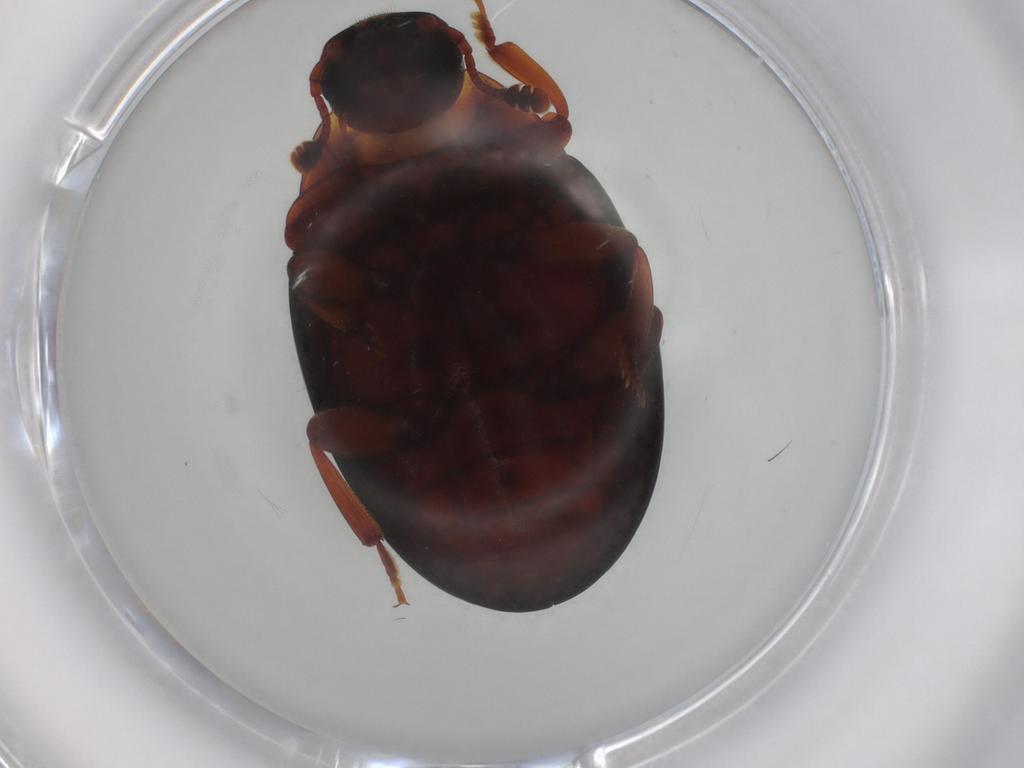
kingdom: Animalia
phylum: Arthropoda
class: Insecta
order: Coleoptera
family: Zopheridae
